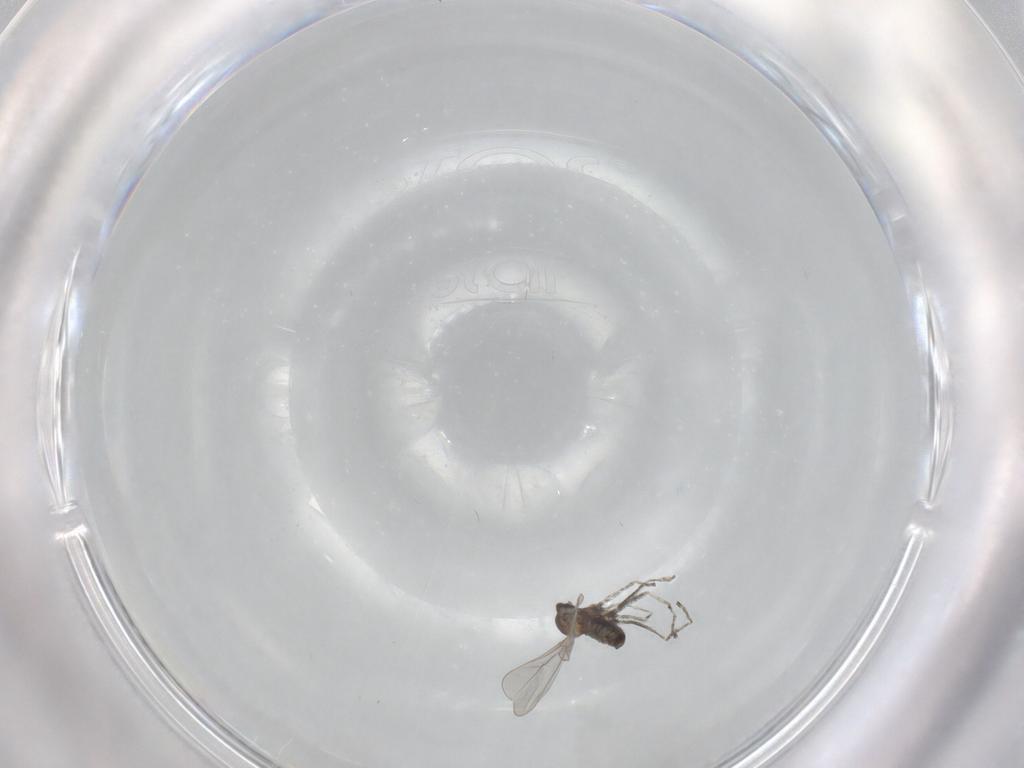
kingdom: Animalia
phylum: Arthropoda
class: Insecta
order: Diptera
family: Cecidomyiidae
